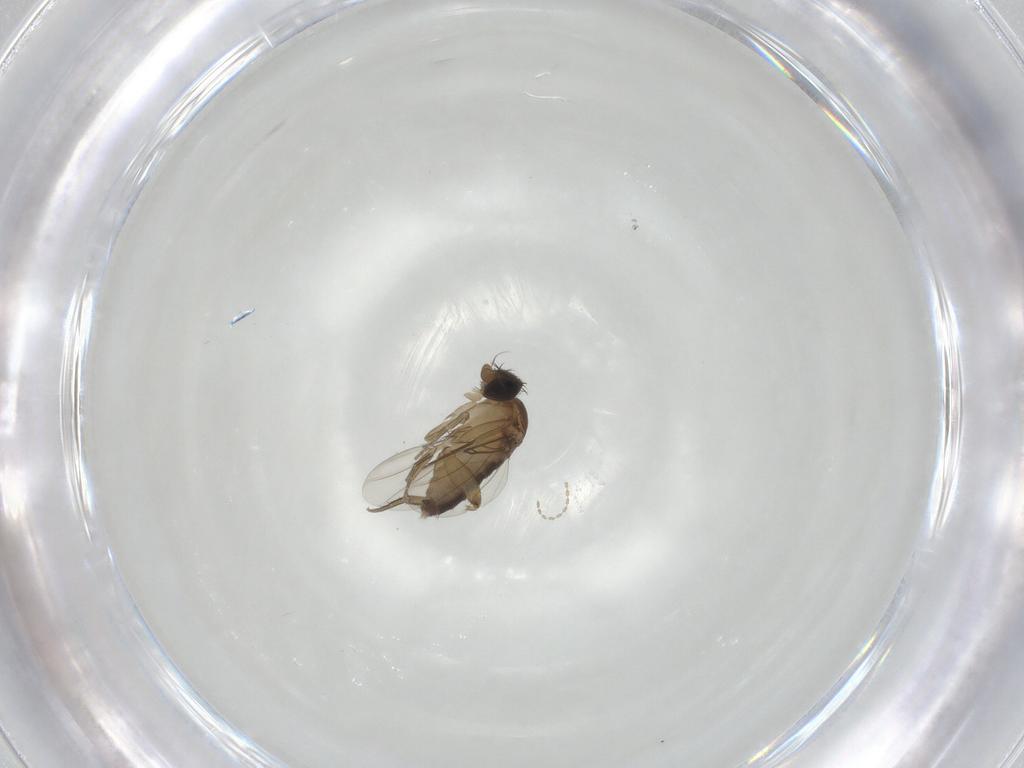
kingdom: Animalia
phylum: Arthropoda
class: Insecta
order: Diptera
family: Phoridae
